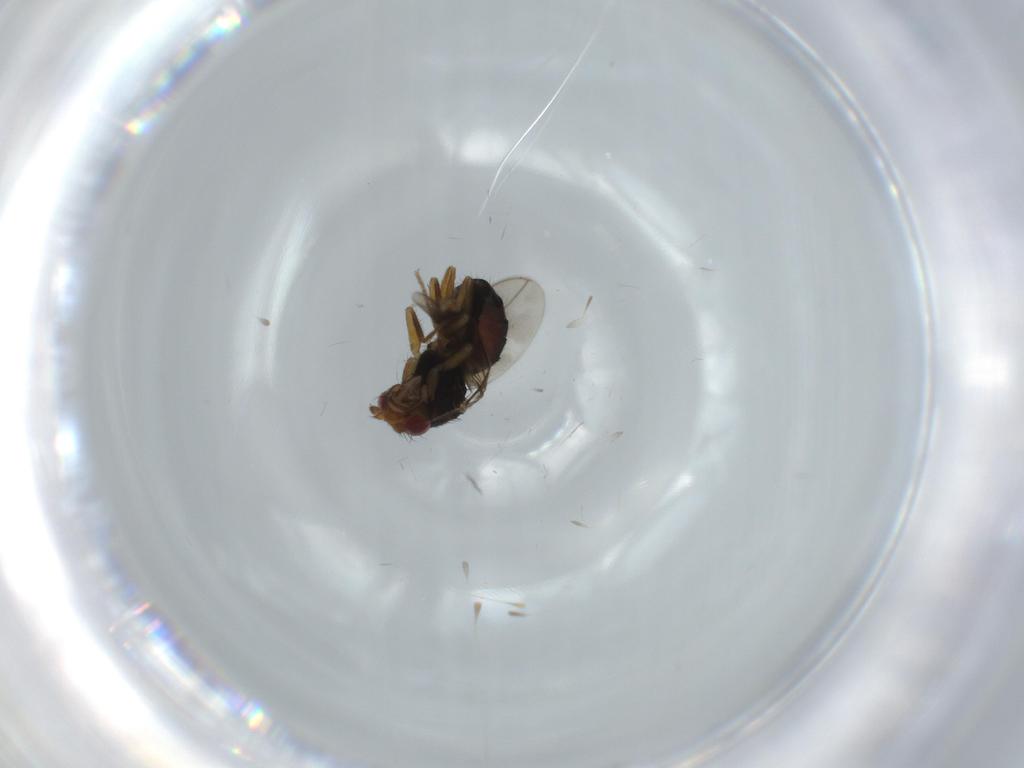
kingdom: Animalia
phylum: Arthropoda
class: Insecta
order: Diptera
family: Sphaeroceridae
